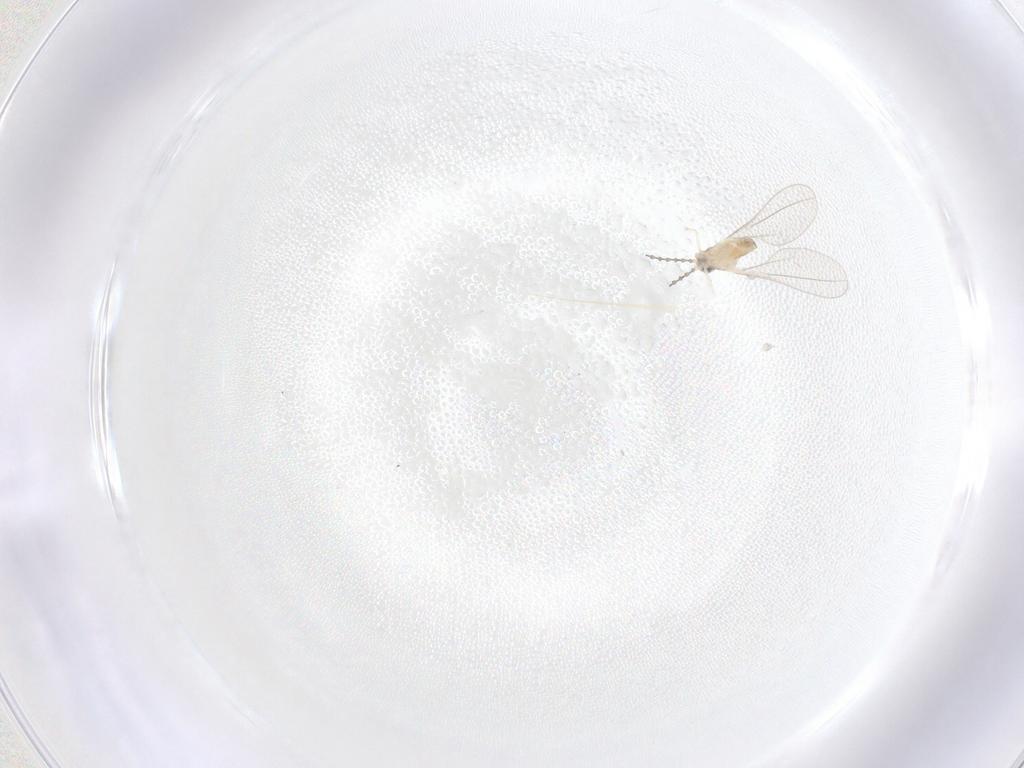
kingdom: Animalia
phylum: Arthropoda
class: Insecta
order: Diptera
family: Cecidomyiidae
